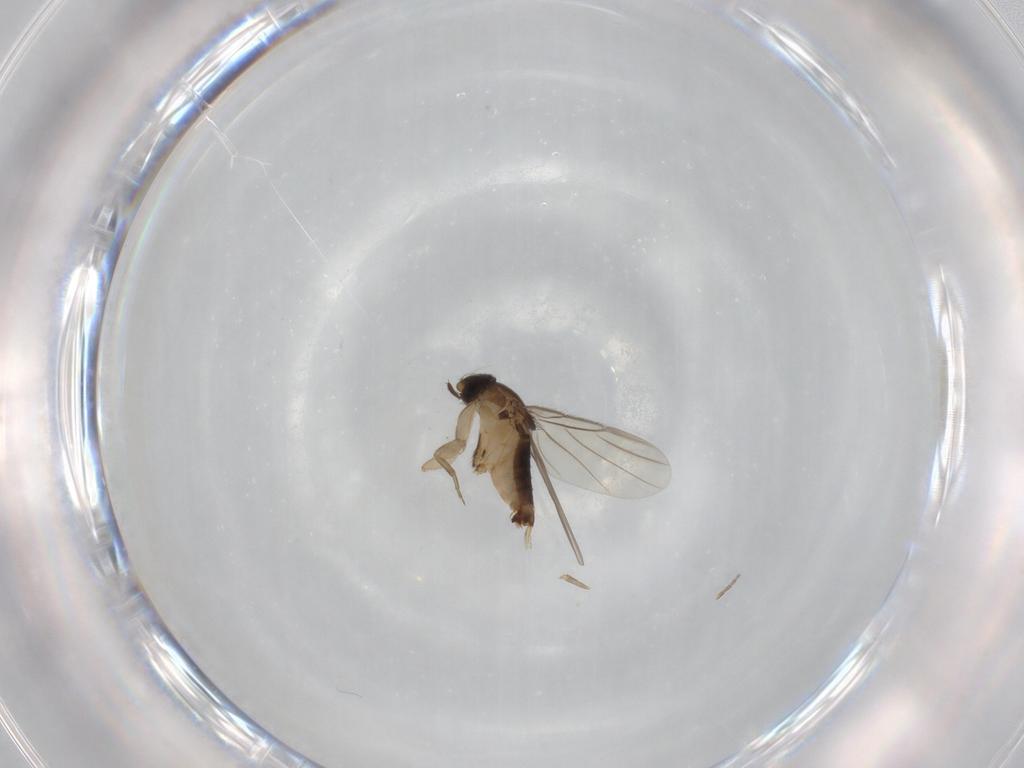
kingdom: Animalia
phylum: Arthropoda
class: Insecta
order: Diptera
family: Phoridae
